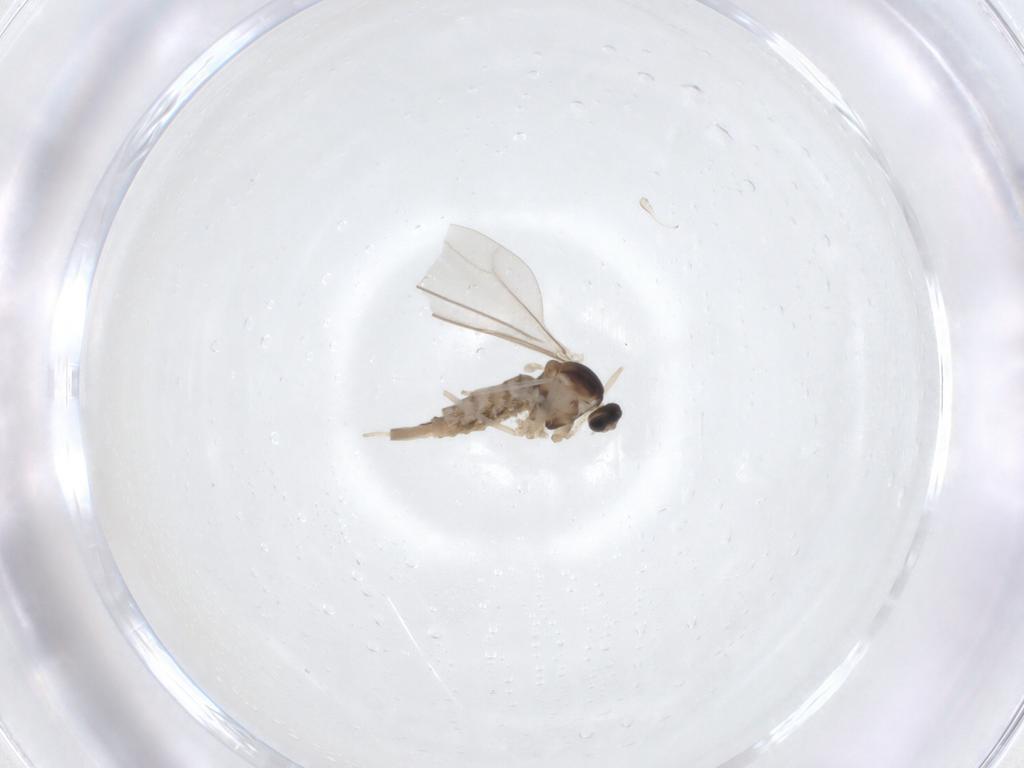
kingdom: Animalia
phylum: Arthropoda
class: Insecta
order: Diptera
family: Cecidomyiidae
